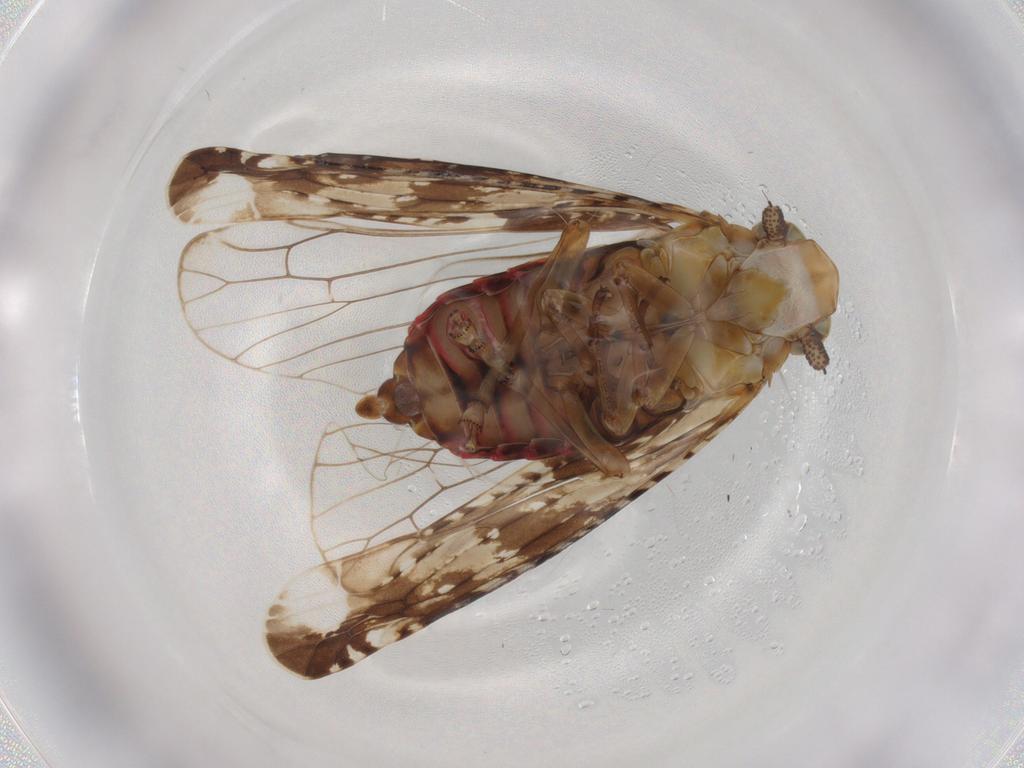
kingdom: Animalia
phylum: Arthropoda
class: Insecta
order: Hemiptera
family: Achilidae
